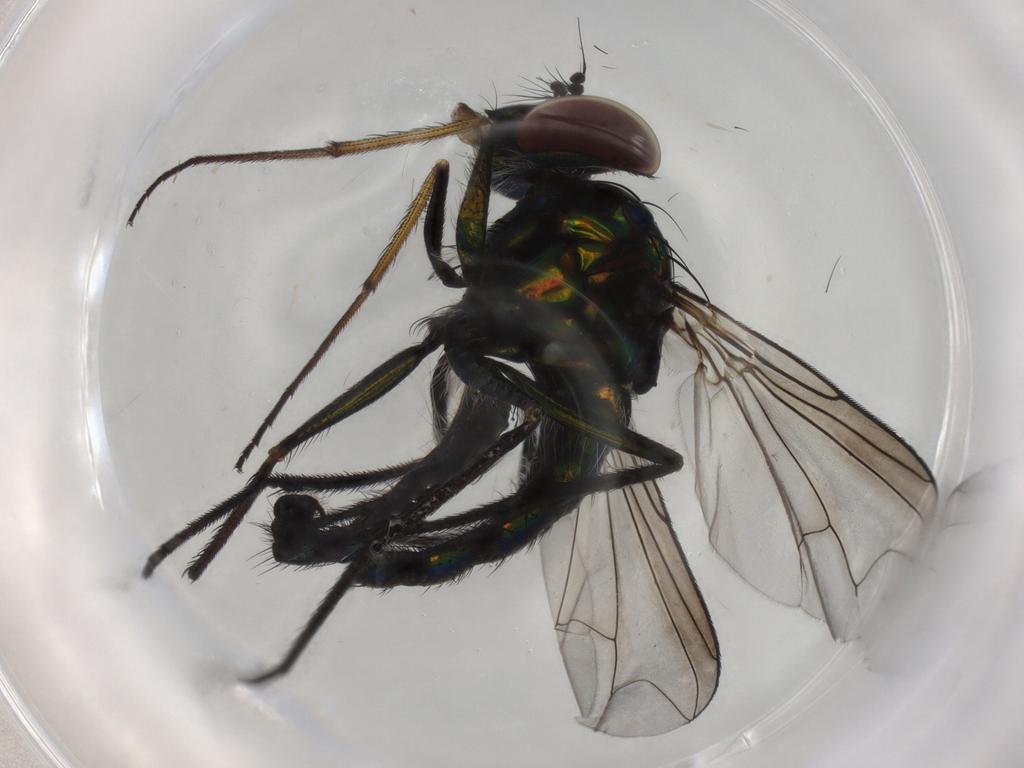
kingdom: Animalia
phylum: Arthropoda
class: Insecta
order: Diptera
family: Dolichopodidae
